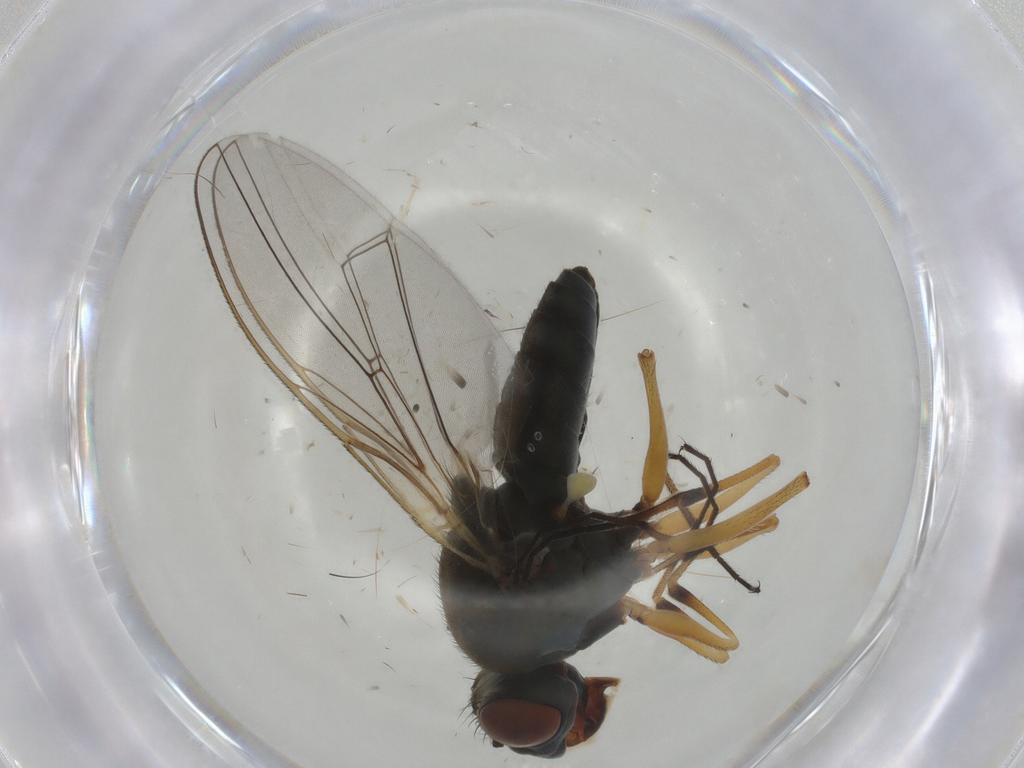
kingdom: Animalia
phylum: Arthropoda
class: Insecta
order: Diptera
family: Ephydridae
